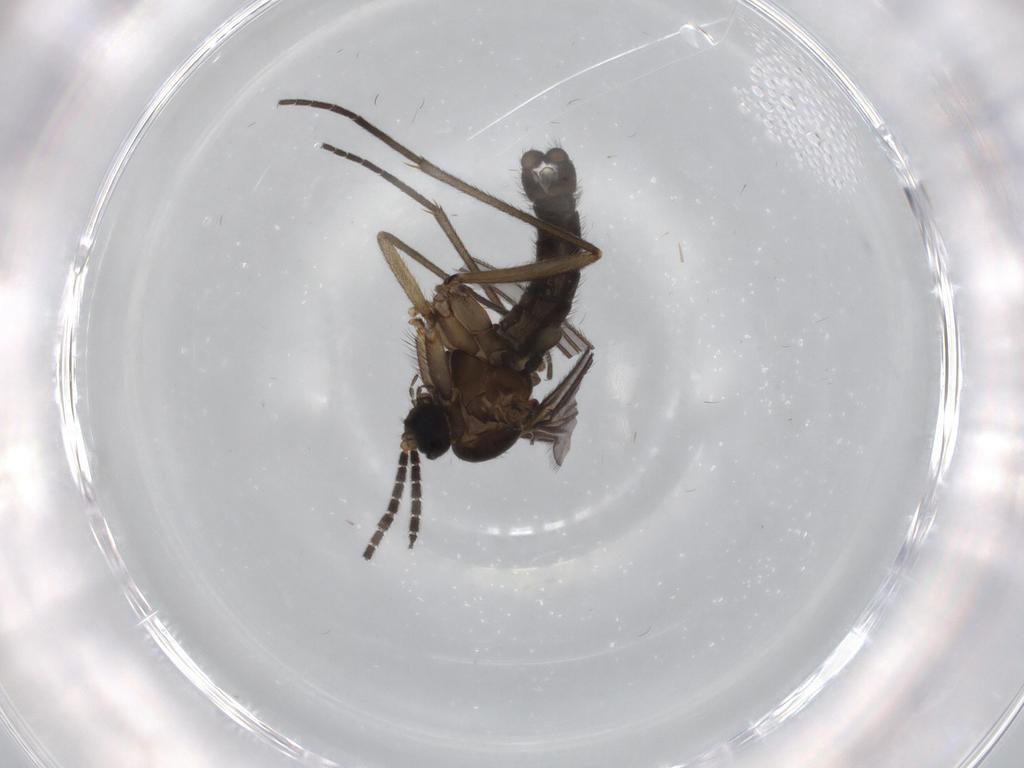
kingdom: Animalia
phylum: Arthropoda
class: Insecta
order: Diptera
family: Sciaridae
